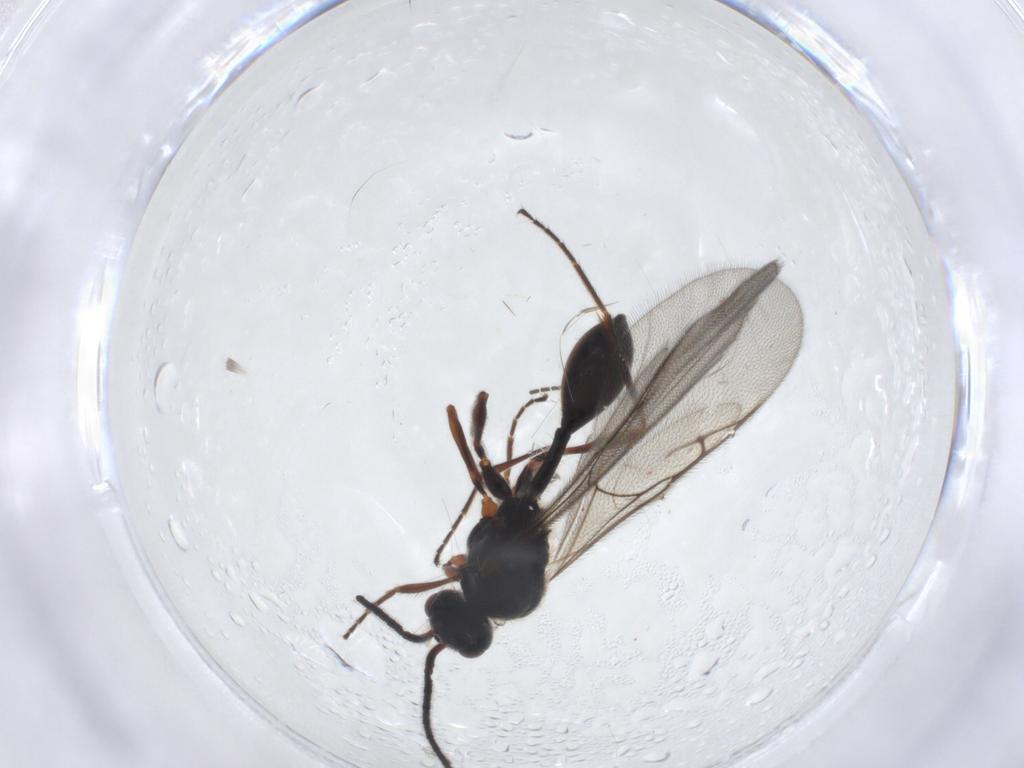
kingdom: Animalia
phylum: Arthropoda
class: Insecta
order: Hymenoptera
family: Diapriidae
